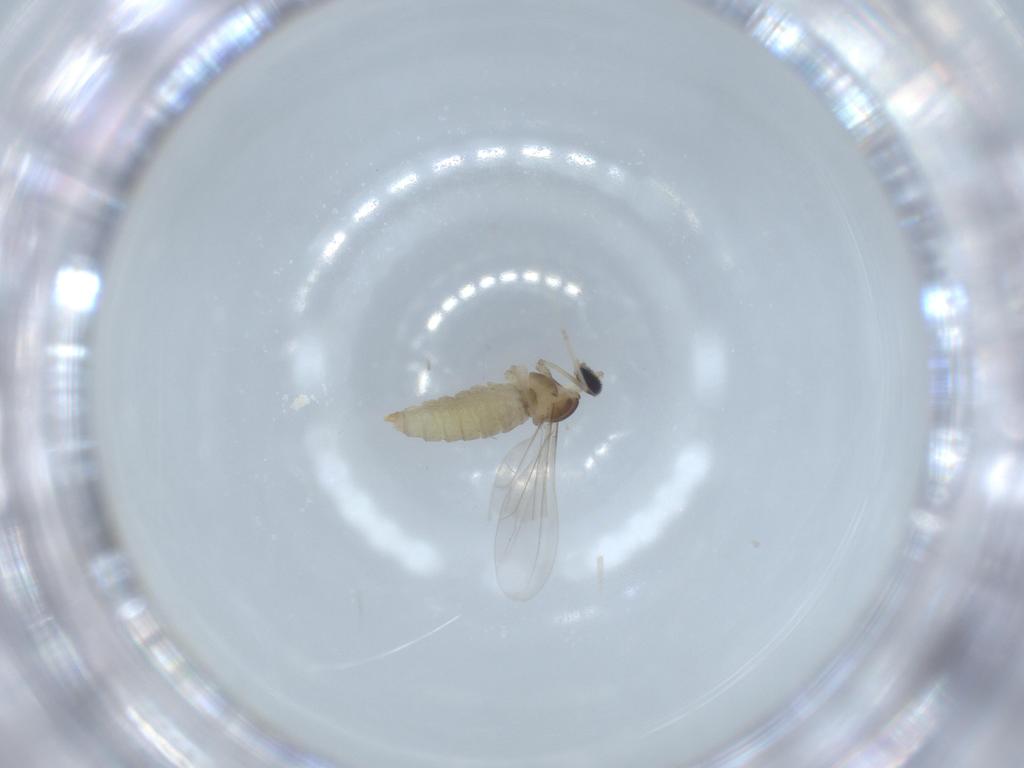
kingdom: Animalia
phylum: Arthropoda
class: Insecta
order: Diptera
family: Cecidomyiidae
